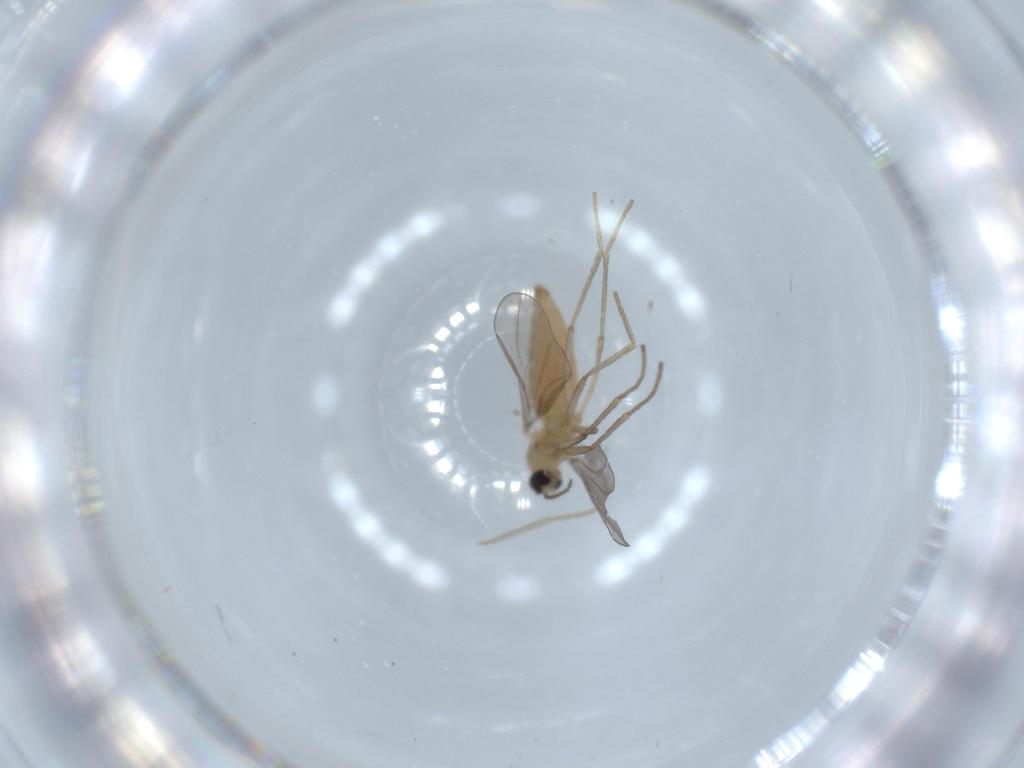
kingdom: Animalia
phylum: Arthropoda
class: Insecta
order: Diptera
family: Cecidomyiidae
